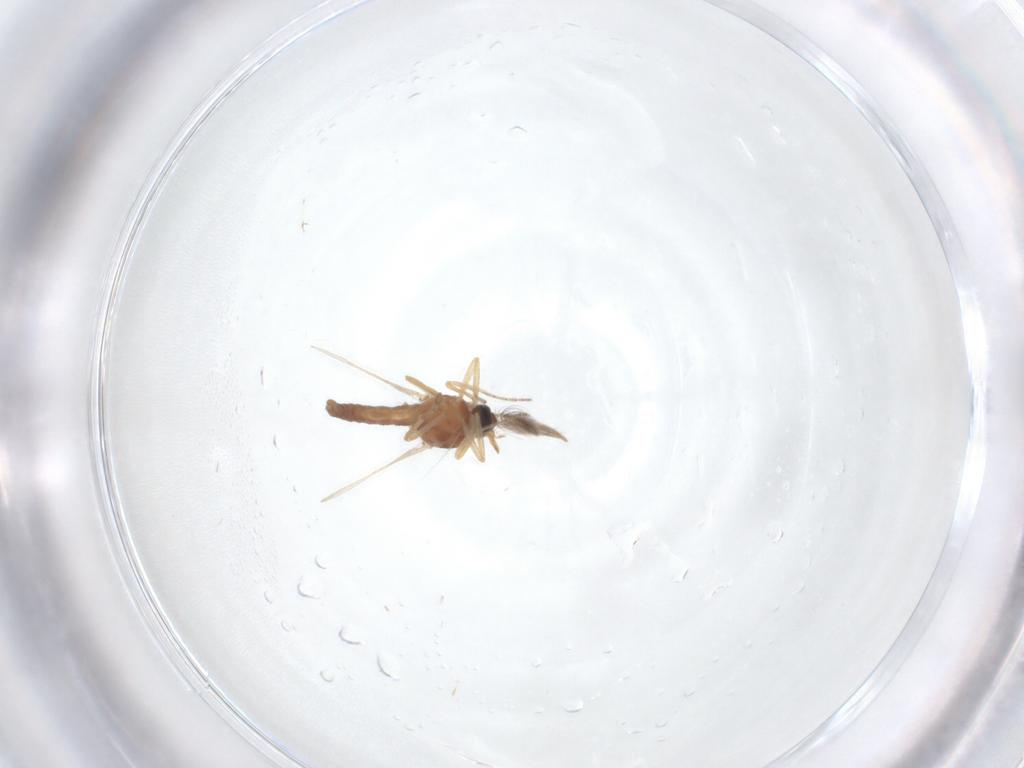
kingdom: Animalia
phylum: Arthropoda
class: Insecta
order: Diptera
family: Ceratopogonidae
